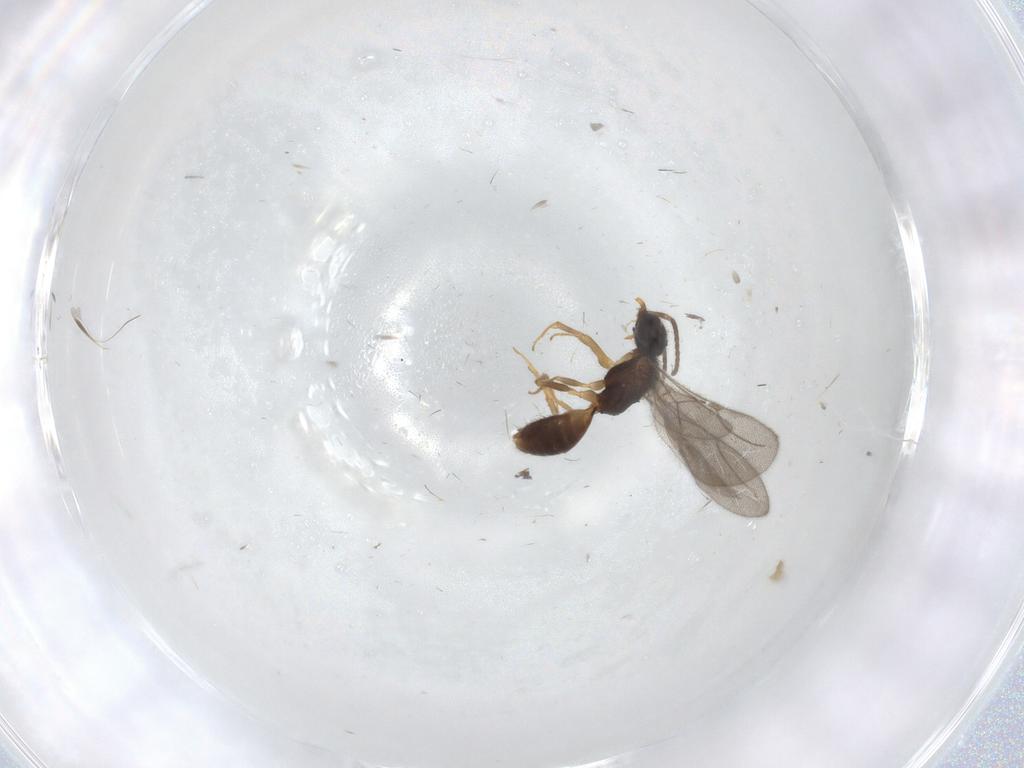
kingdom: Animalia
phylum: Arthropoda
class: Insecta
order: Hymenoptera
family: Bethylidae
